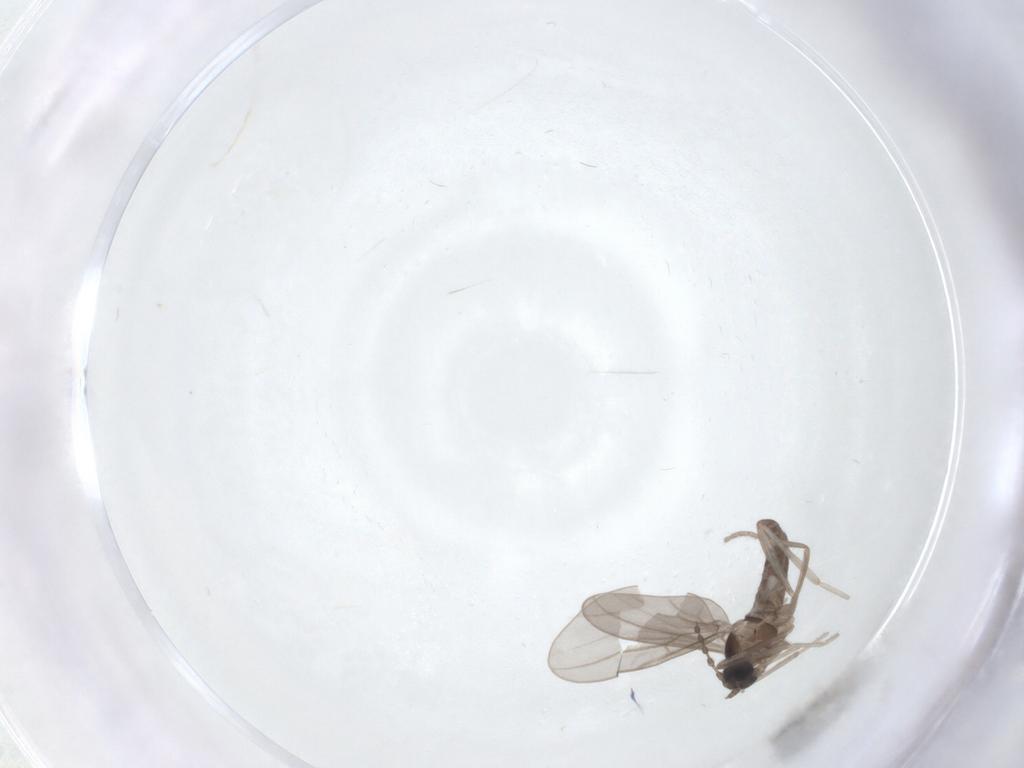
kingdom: Animalia
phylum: Arthropoda
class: Insecta
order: Diptera
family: Cecidomyiidae
